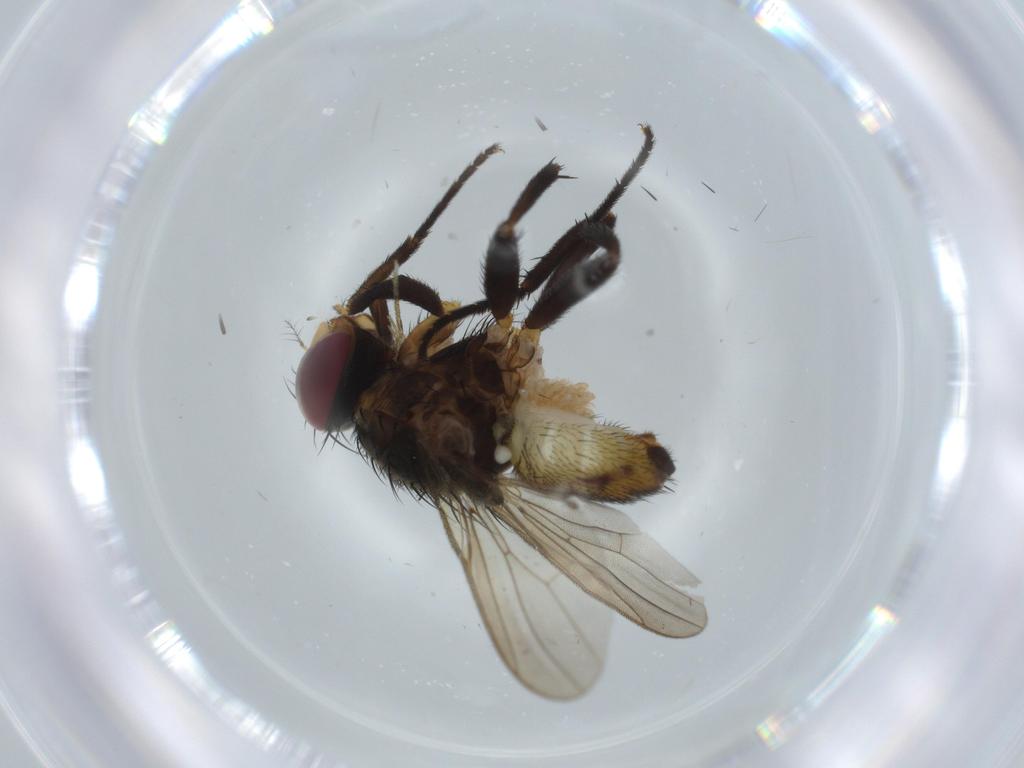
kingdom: Animalia
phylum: Arthropoda
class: Insecta
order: Diptera
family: Anthomyiidae
